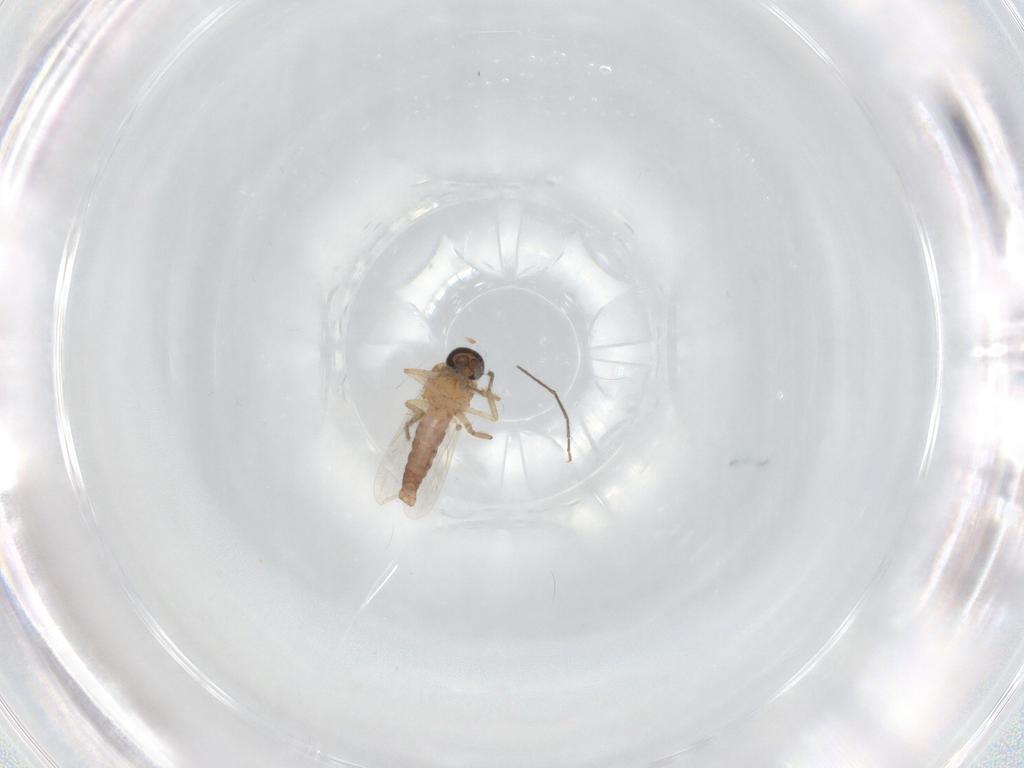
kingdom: Animalia
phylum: Arthropoda
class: Insecta
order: Diptera
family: Ceratopogonidae
